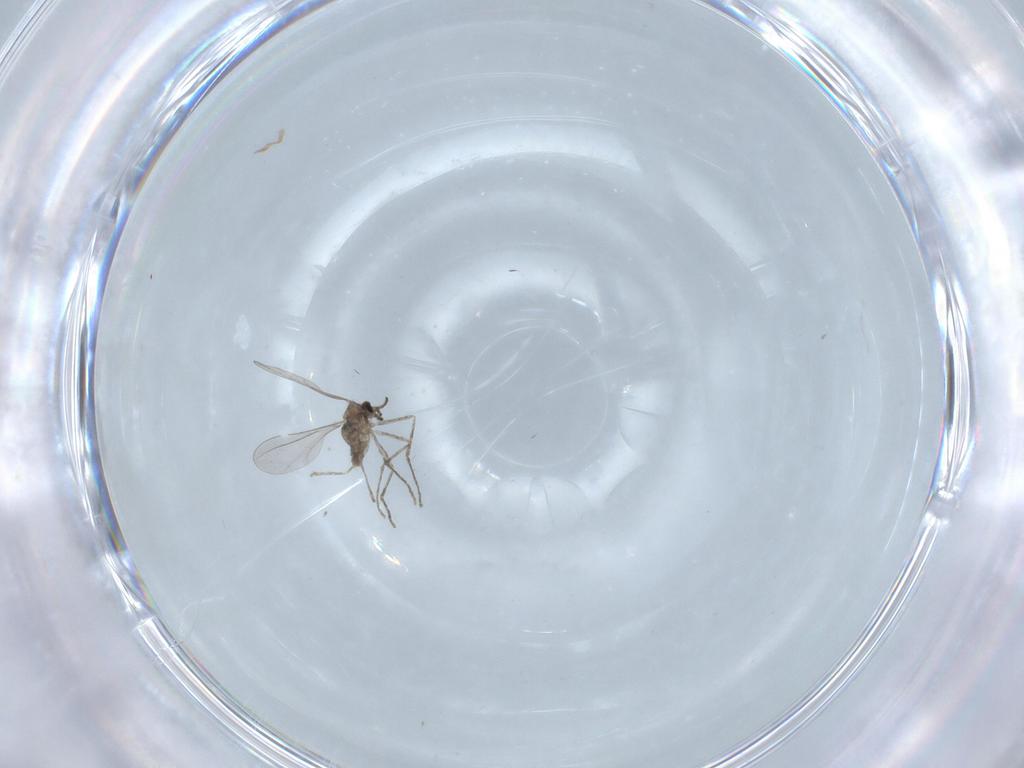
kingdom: Animalia
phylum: Arthropoda
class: Insecta
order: Diptera
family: Sciaridae
